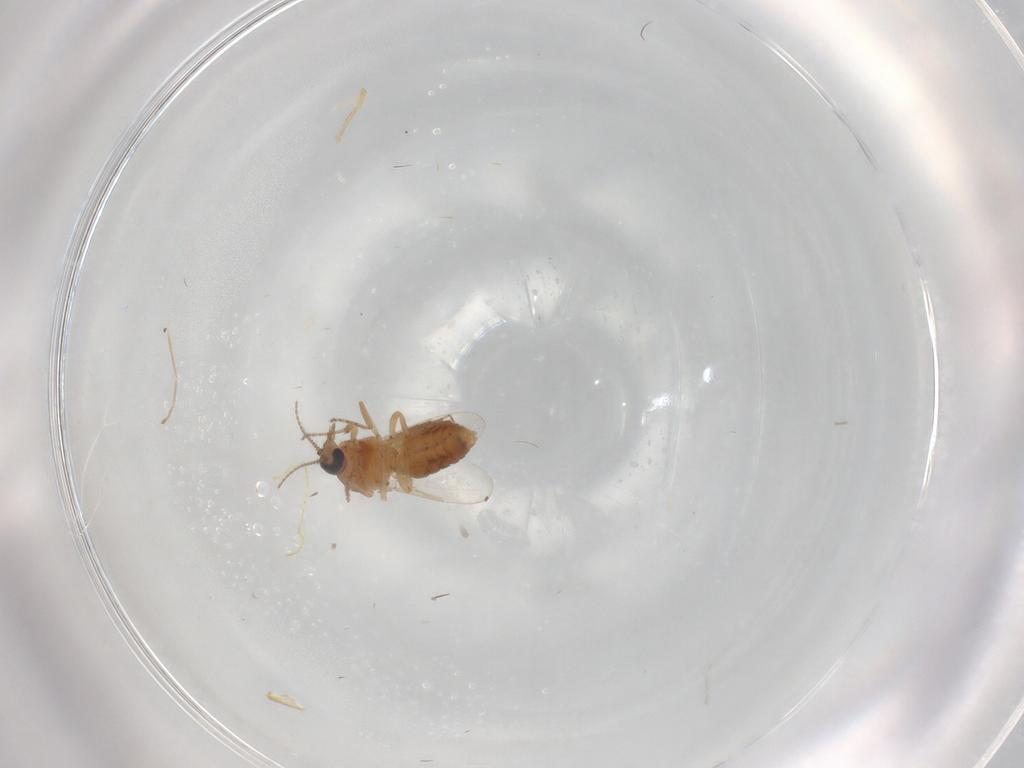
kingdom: Animalia
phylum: Arthropoda
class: Insecta
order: Diptera
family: Ceratopogonidae
